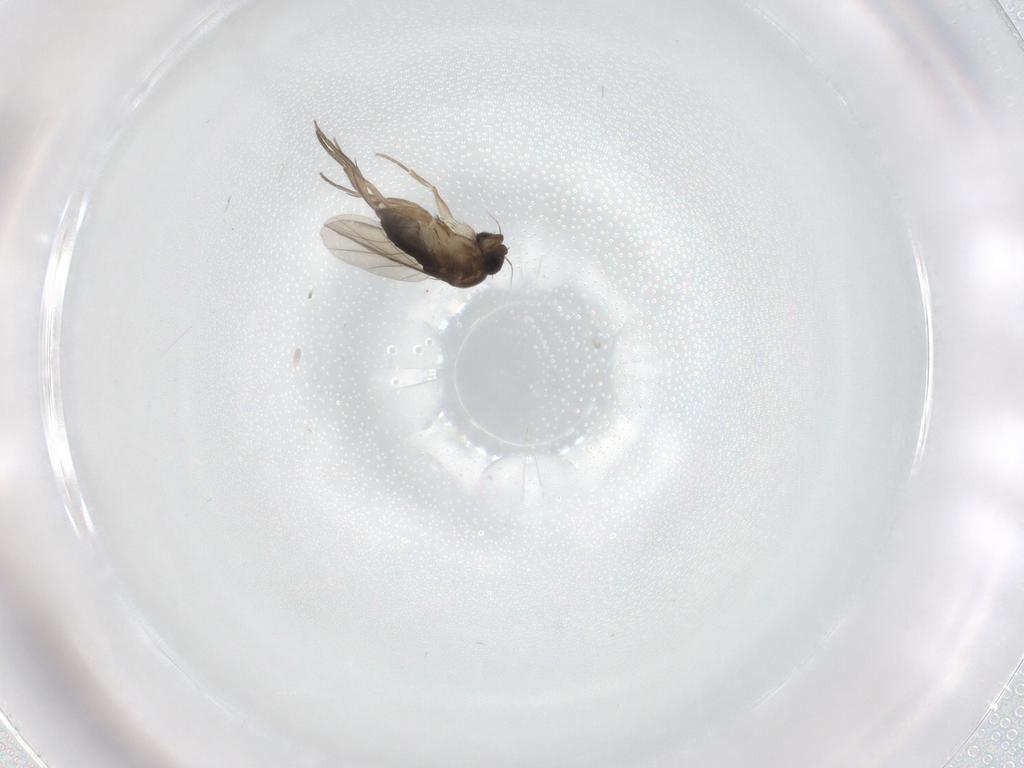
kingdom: Animalia
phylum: Arthropoda
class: Insecta
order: Diptera
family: Phoridae
